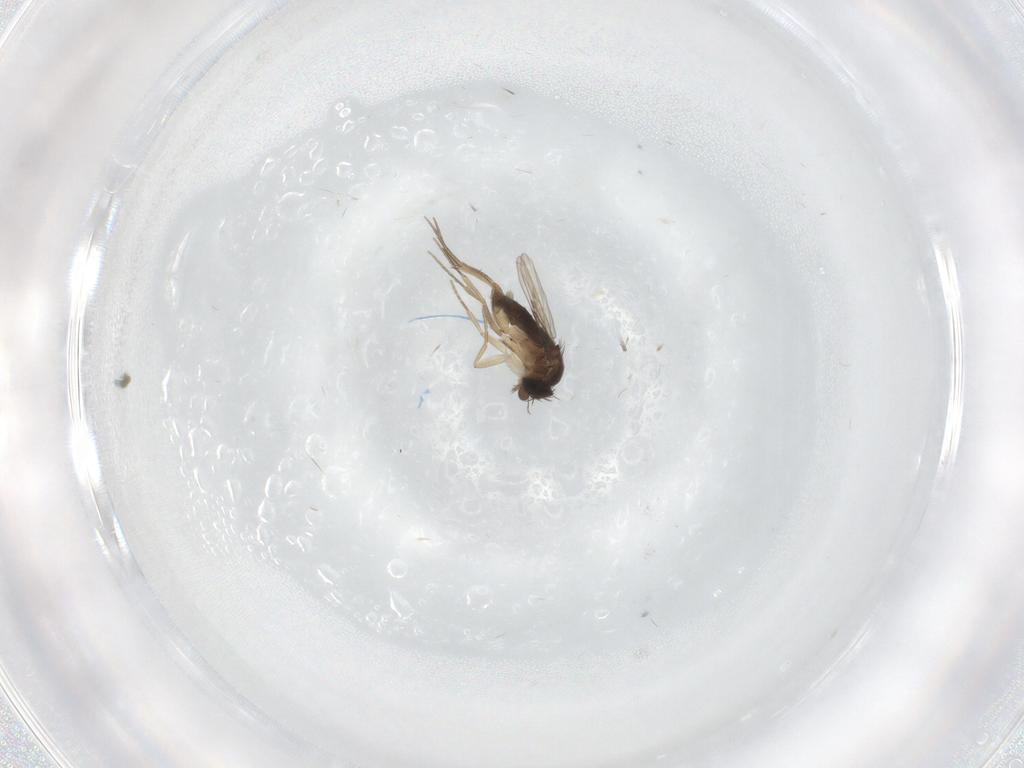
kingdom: Animalia
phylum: Arthropoda
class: Insecta
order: Diptera
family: Phoridae
